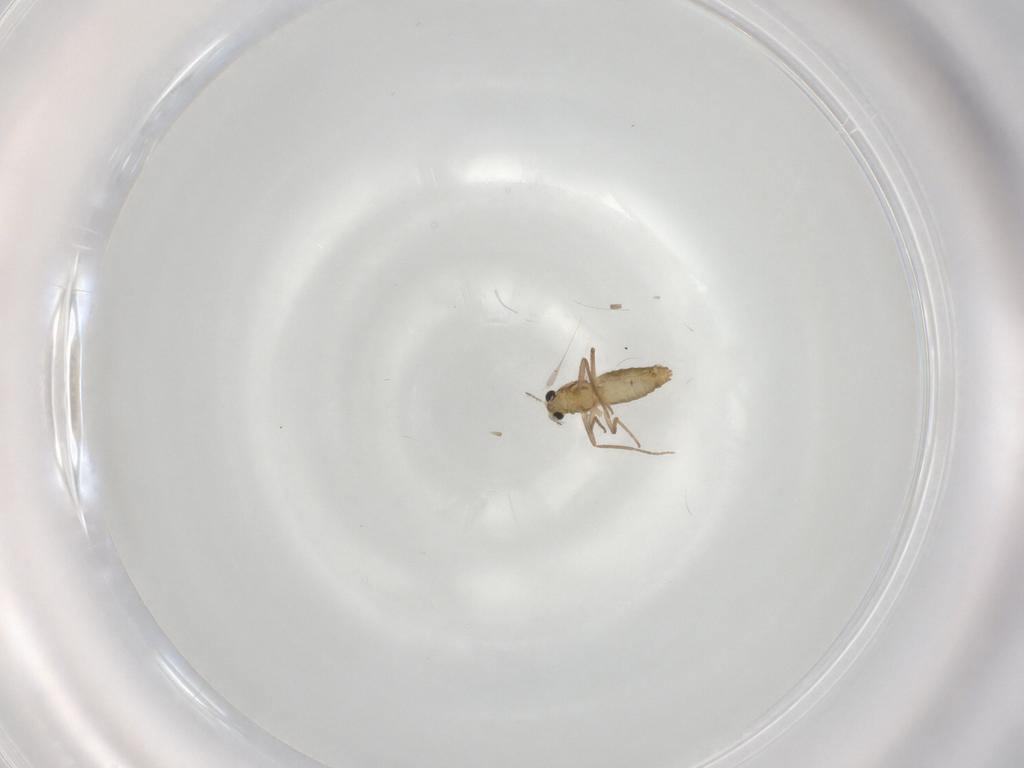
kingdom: Animalia
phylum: Arthropoda
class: Insecta
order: Diptera
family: Chironomidae
